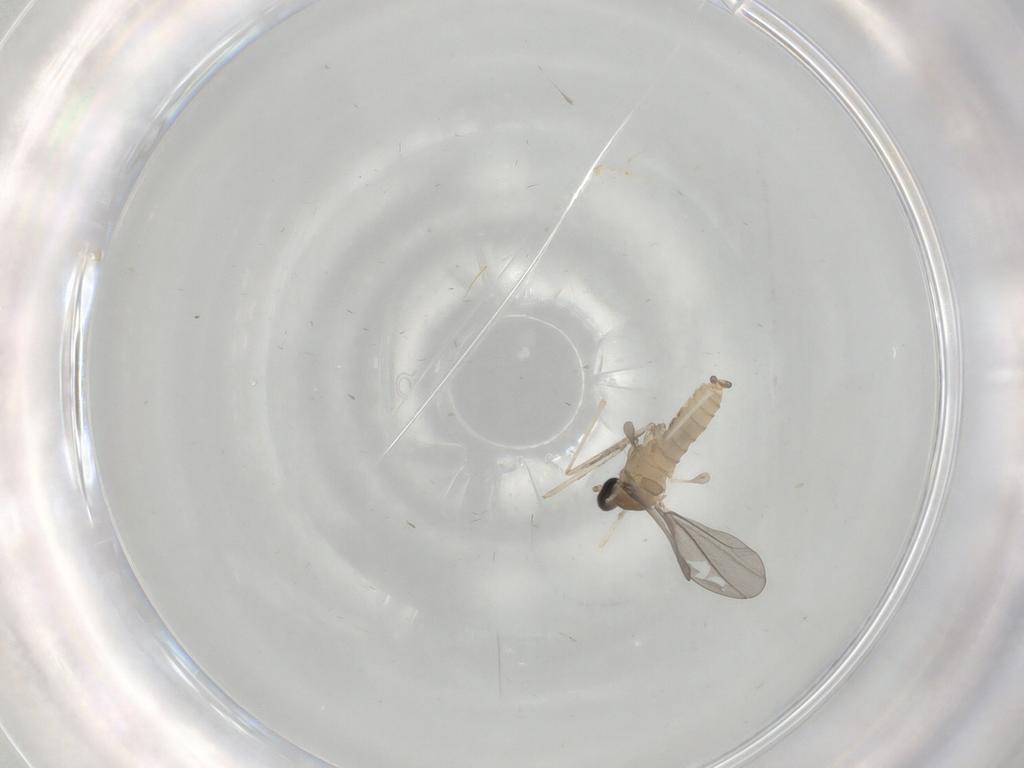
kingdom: Animalia
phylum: Arthropoda
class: Insecta
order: Diptera
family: Cecidomyiidae
